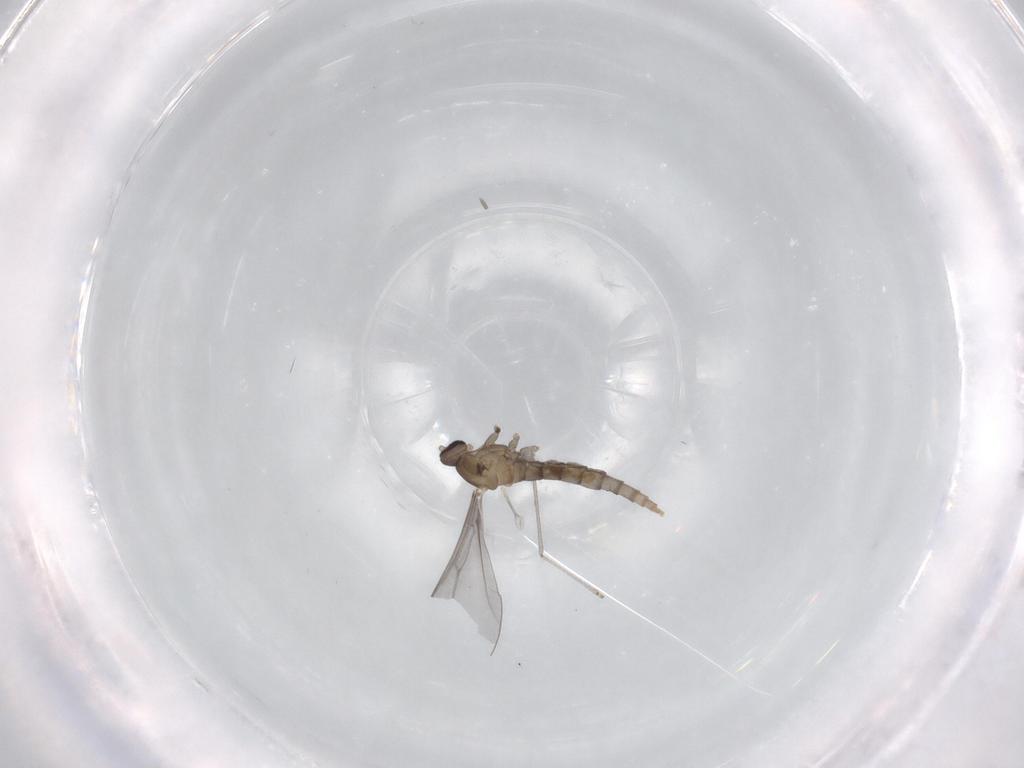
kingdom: Animalia
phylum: Arthropoda
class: Insecta
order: Diptera
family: Cecidomyiidae
